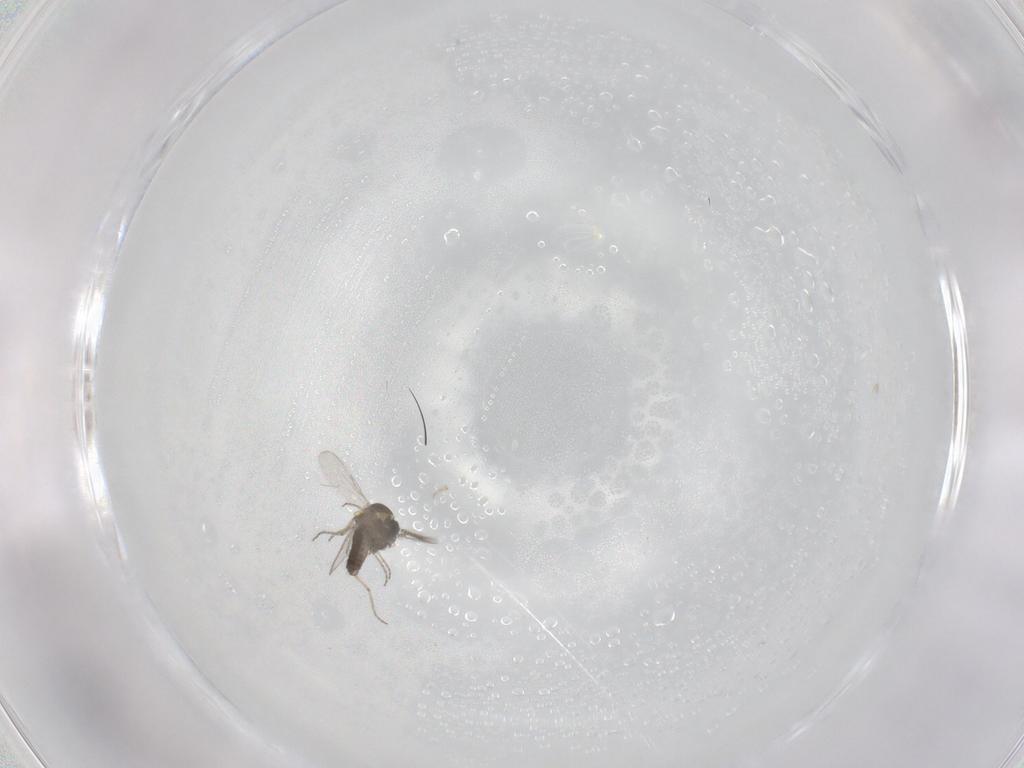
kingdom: Animalia
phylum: Arthropoda
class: Insecta
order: Diptera
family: Ceratopogonidae
